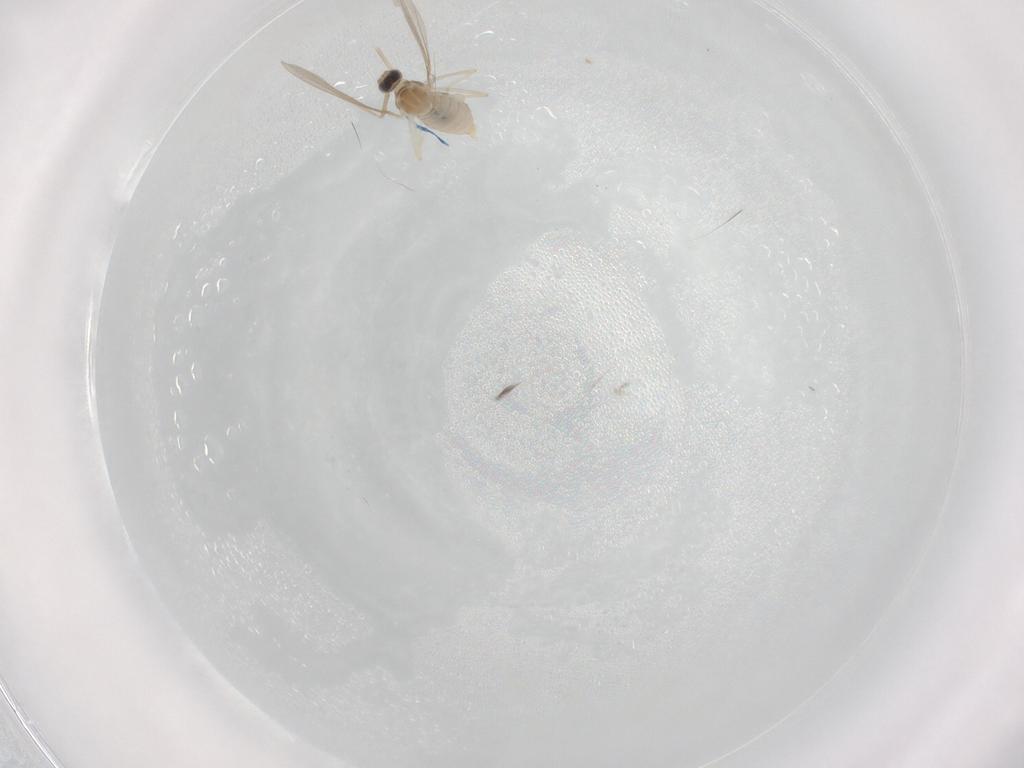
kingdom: Animalia
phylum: Arthropoda
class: Insecta
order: Diptera
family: Cecidomyiidae
